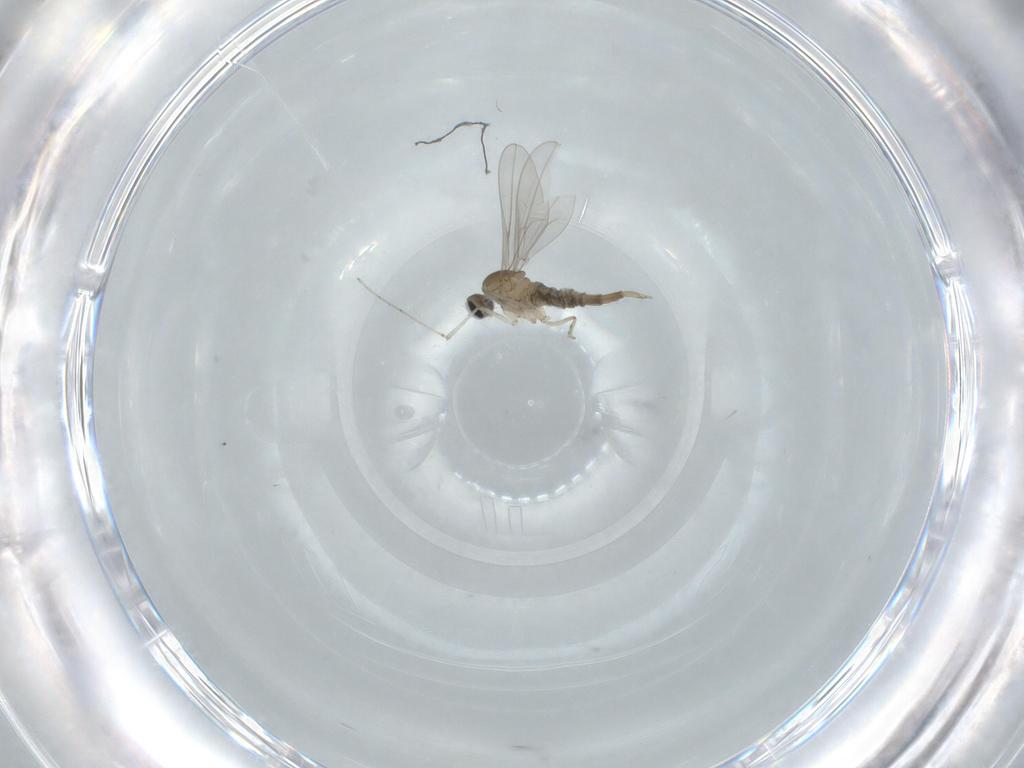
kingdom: Animalia
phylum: Arthropoda
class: Insecta
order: Diptera
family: Cecidomyiidae
